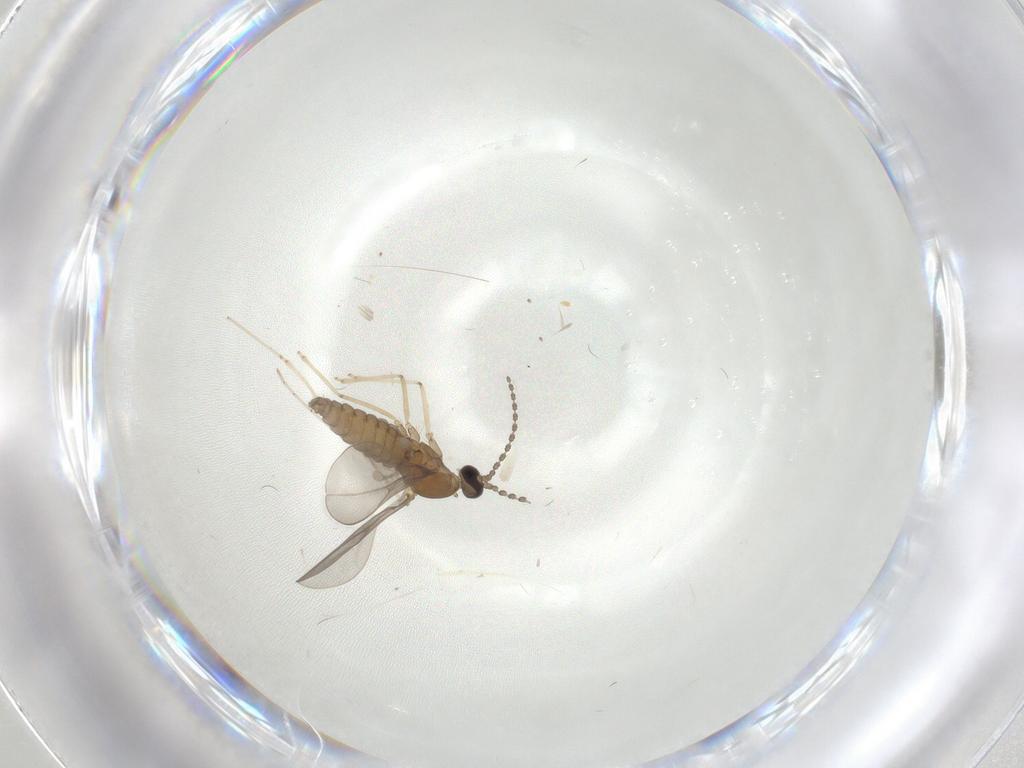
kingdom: Animalia
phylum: Arthropoda
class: Insecta
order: Diptera
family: Cecidomyiidae
